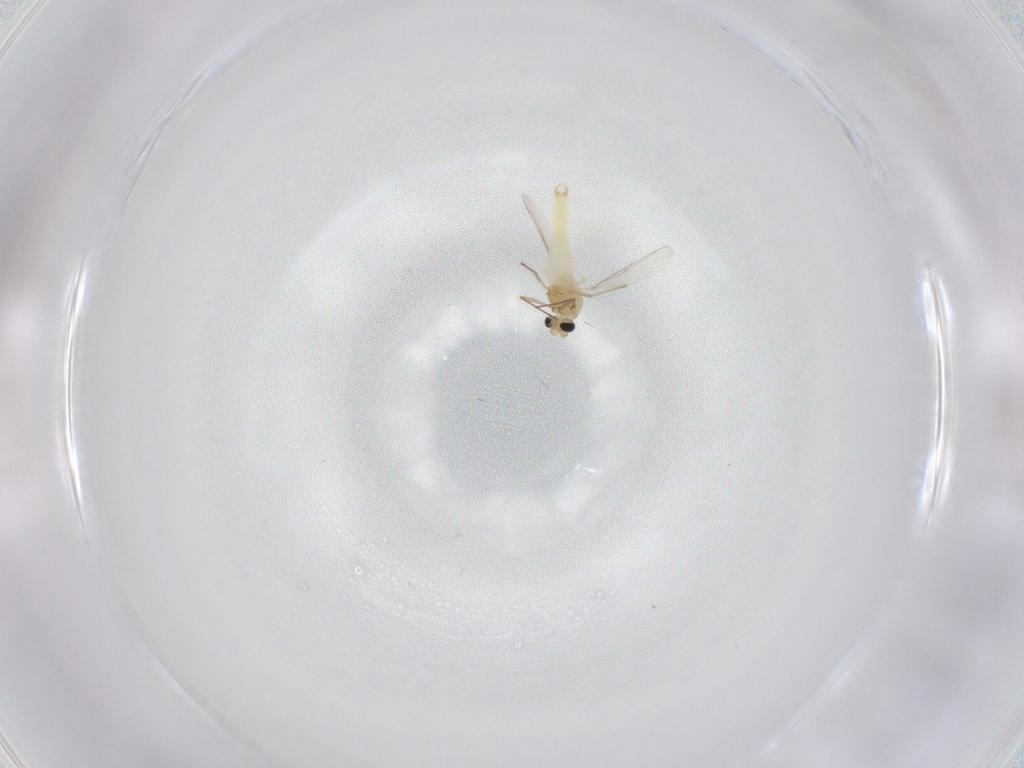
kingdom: Animalia
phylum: Arthropoda
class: Insecta
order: Diptera
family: Chironomidae
